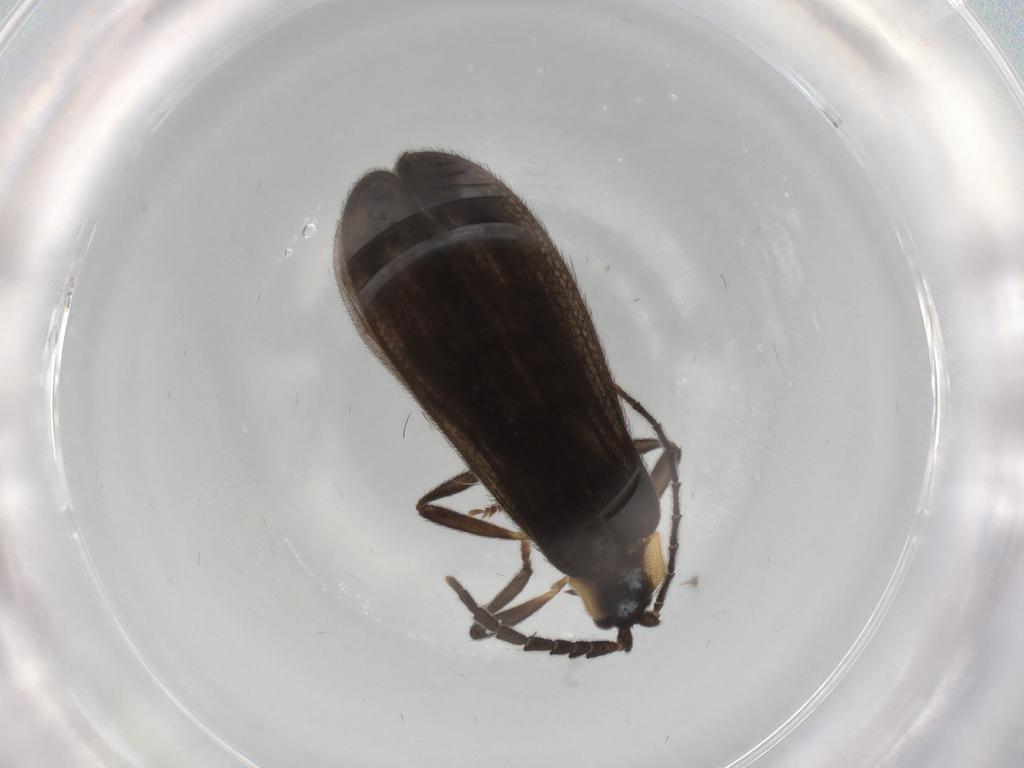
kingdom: Animalia
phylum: Arthropoda
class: Insecta
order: Coleoptera
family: Lycidae
